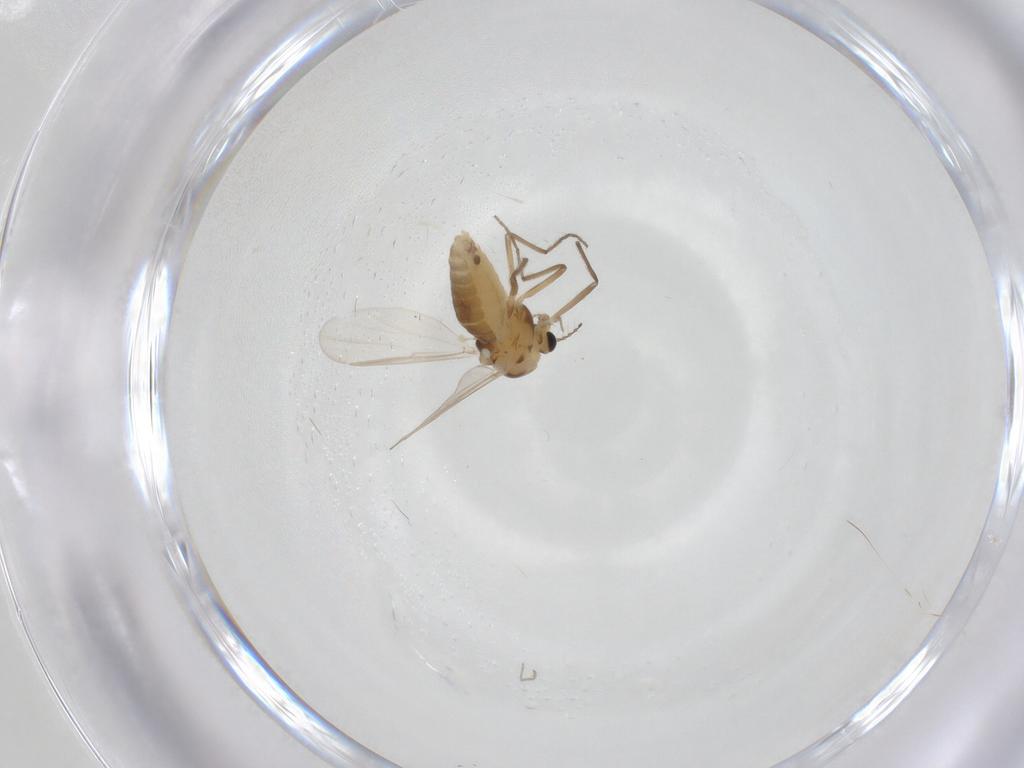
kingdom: Animalia
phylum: Arthropoda
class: Insecta
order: Diptera
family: Chironomidae
